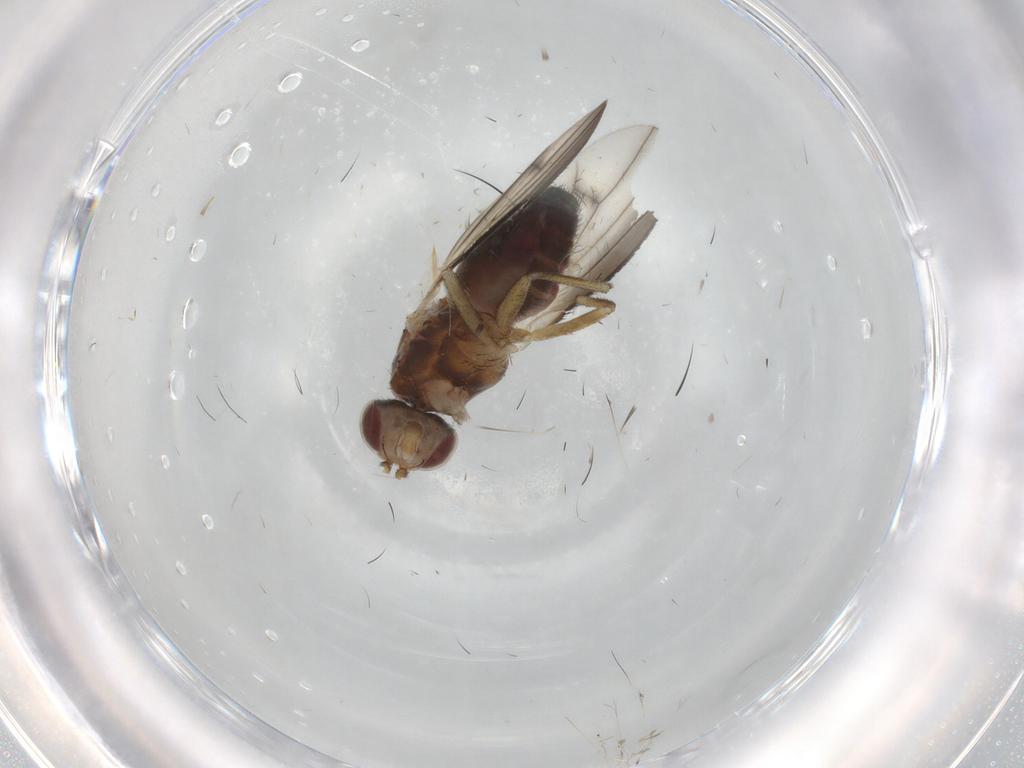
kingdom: Animalia
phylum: Arthropoda
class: Insecta
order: Diptera
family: Heleomyzidae
